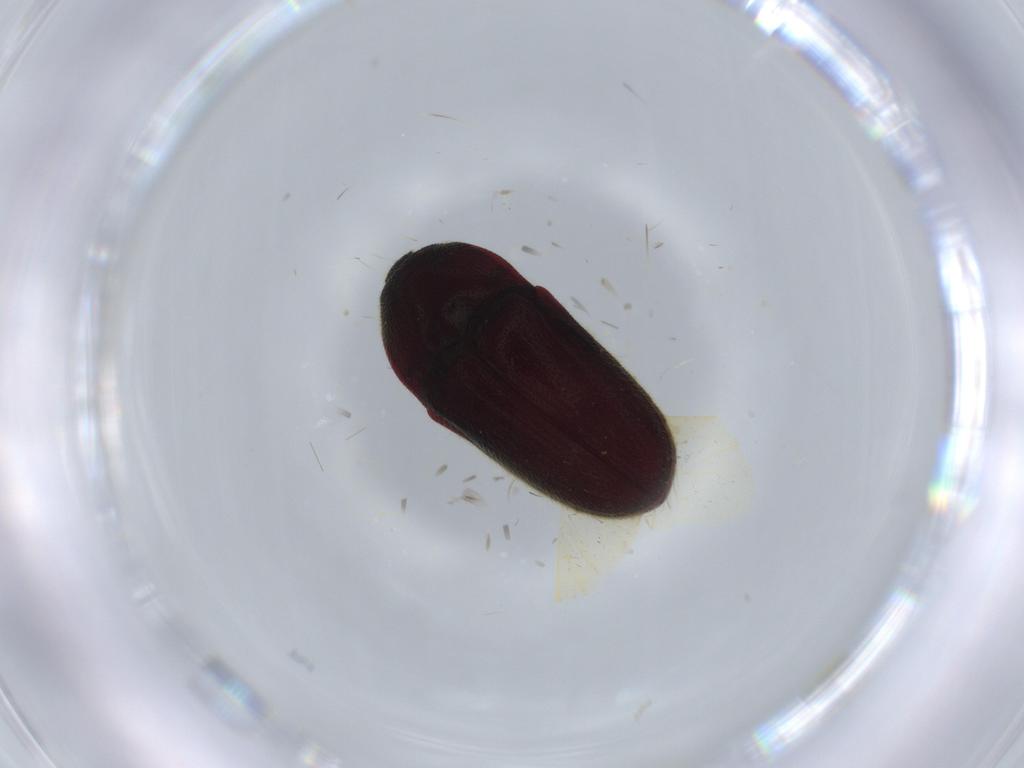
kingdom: Animalia
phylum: Arthropoda
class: Insecta
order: Coleoptera
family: Throscidae
